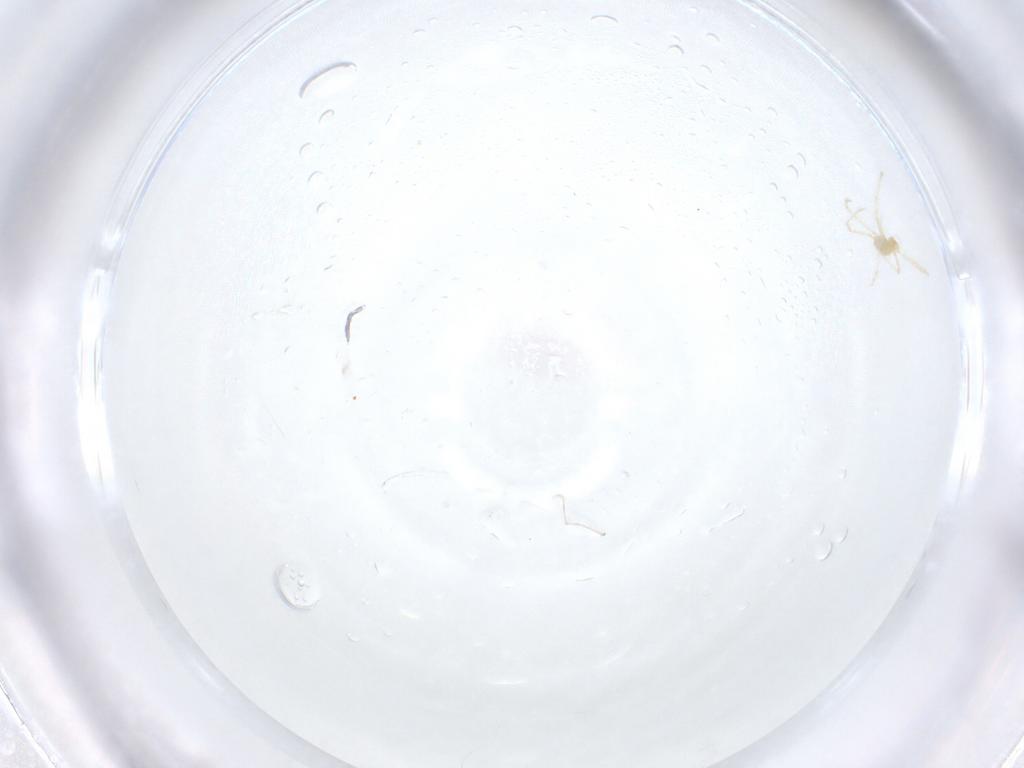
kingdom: Animalia
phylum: Arthropoda
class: Arachnida
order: Trombidiformes
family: Erythraeidae
